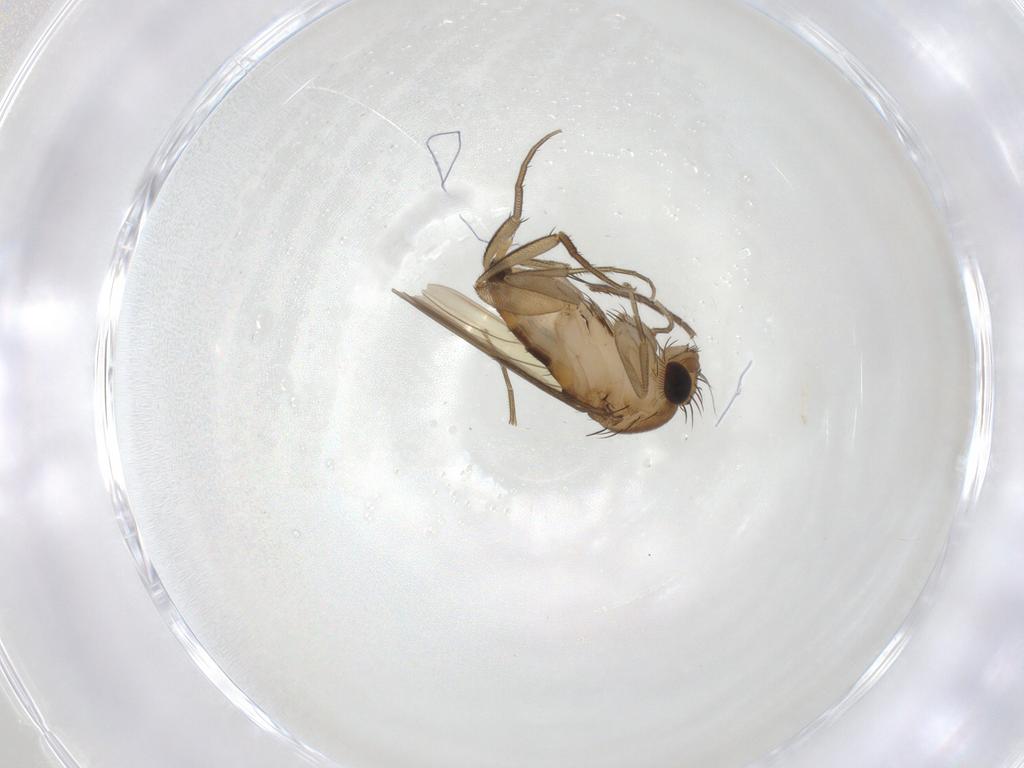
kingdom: Animalia
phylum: Arthropoda
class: Insecta
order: Diptera
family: Phoridae
